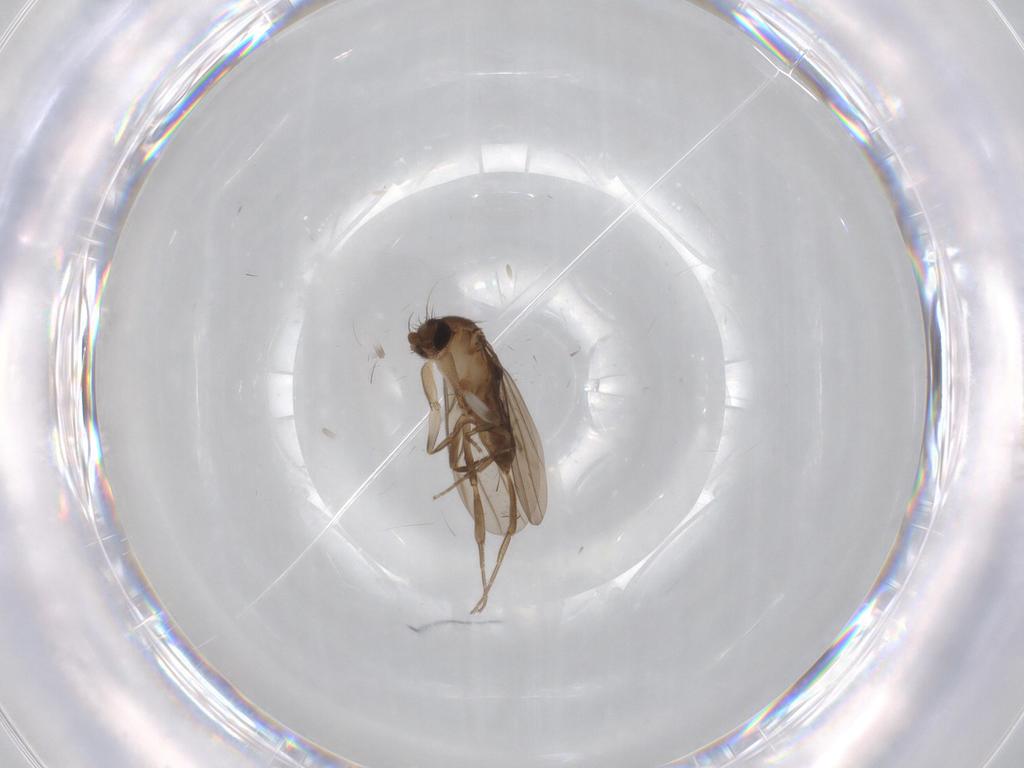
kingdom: Animalia
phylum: Arthropoda
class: Insecta
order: Diptera
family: Cecidomyiidae
